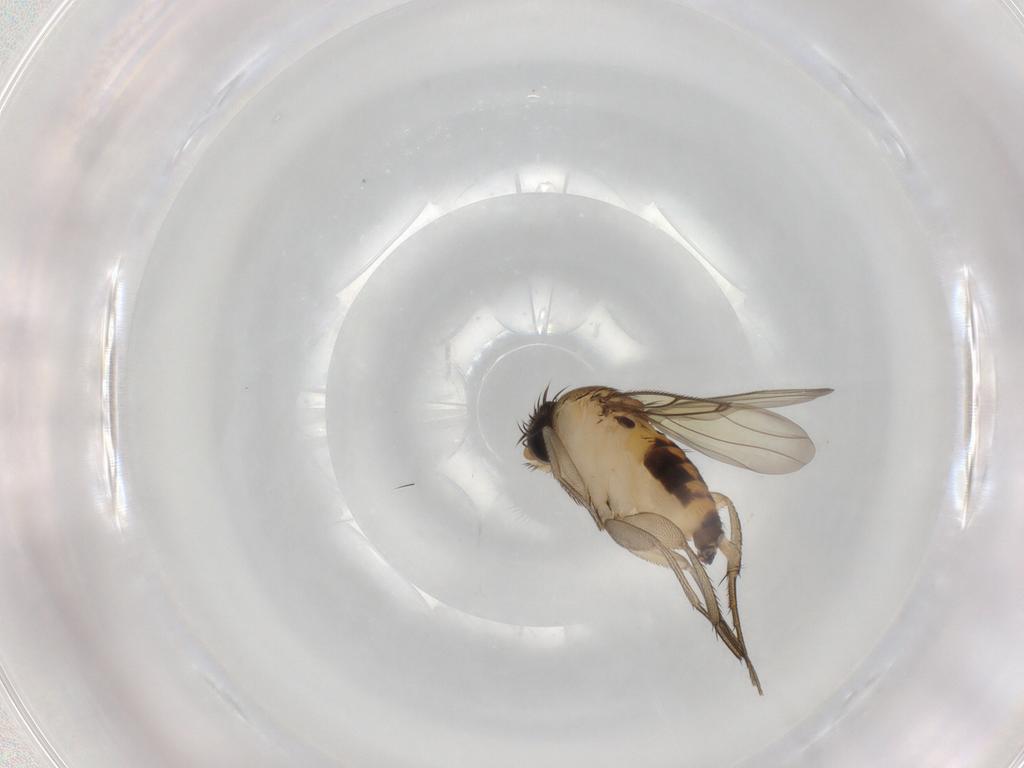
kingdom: Animalia
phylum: Arthropoda
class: Insecta
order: Diptera
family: Phoridae
